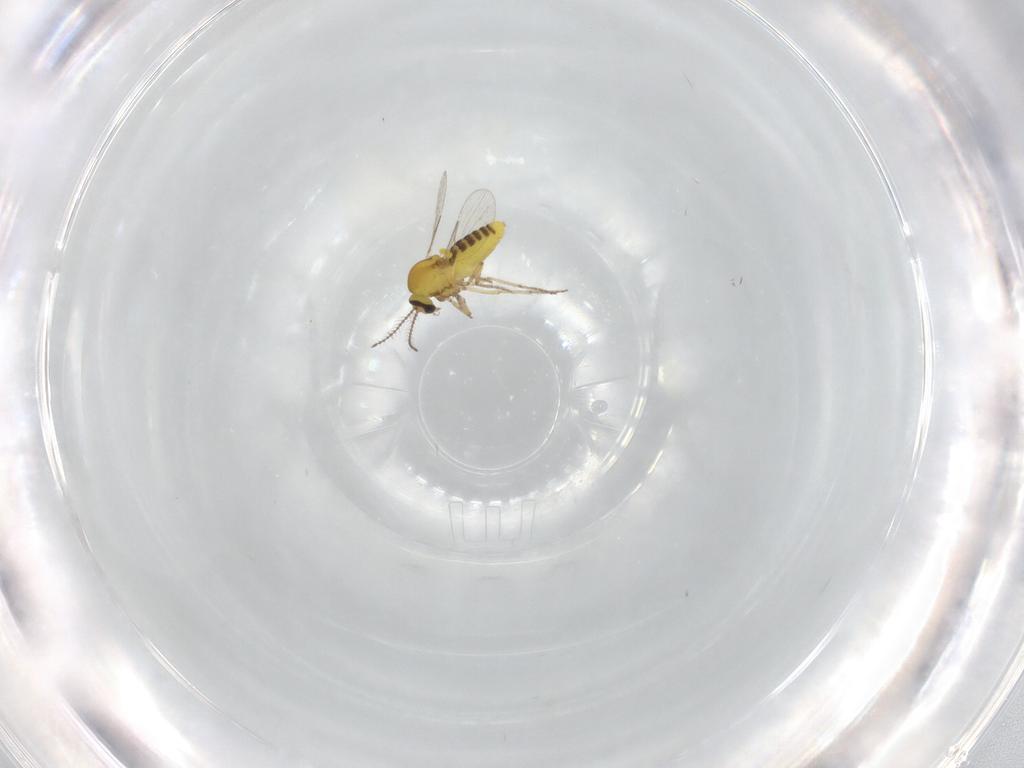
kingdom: Animalia
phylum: Arthropoda
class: Insecta
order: Diptera
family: Ceratopogonidae
